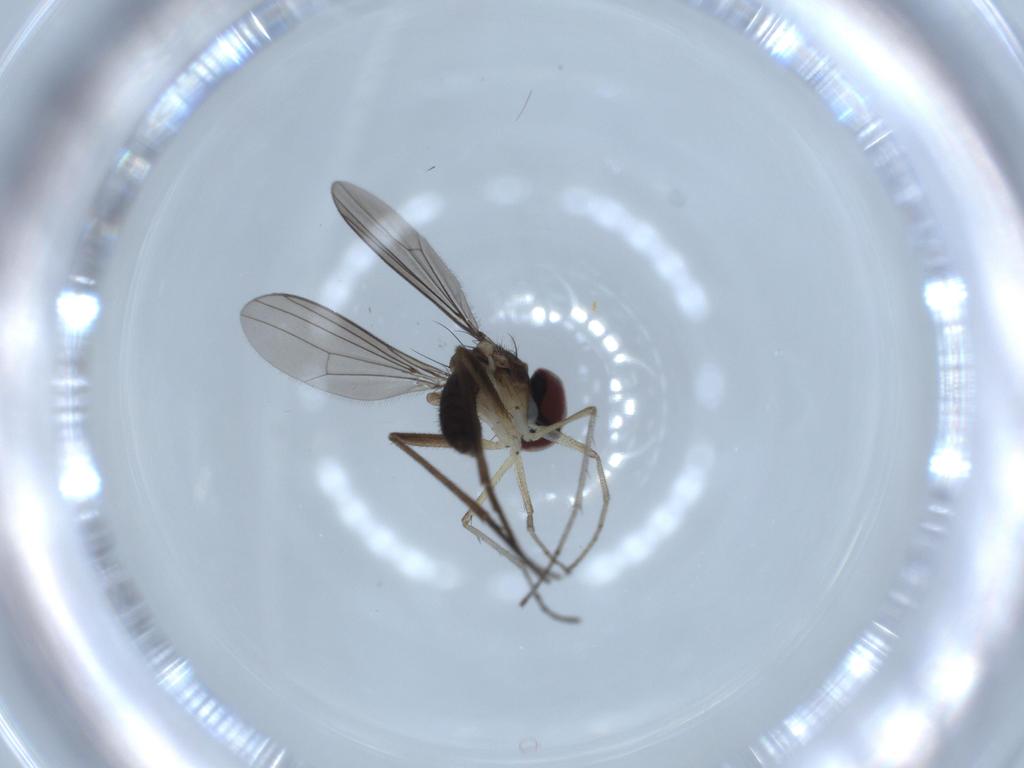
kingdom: Animalia
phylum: Arthropoda
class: Insecta
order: Diptera
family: Dolichopodidae
